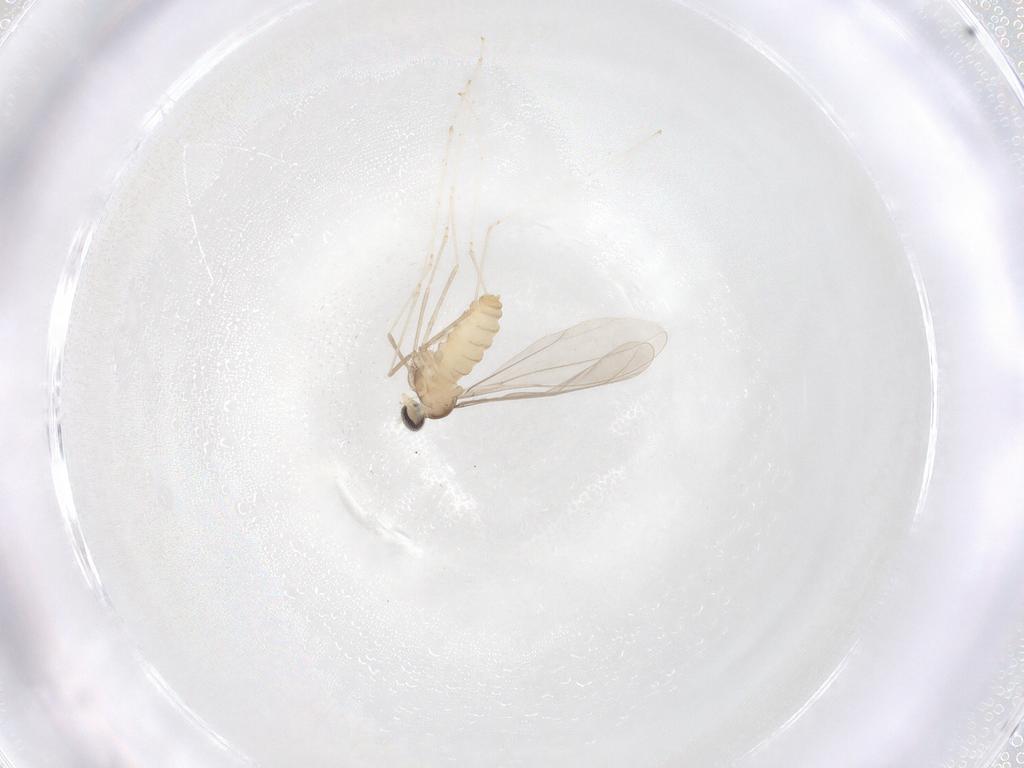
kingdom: Animalia
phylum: Arthropoda
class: Insecta
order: Diptera
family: Cecidomyiidae
